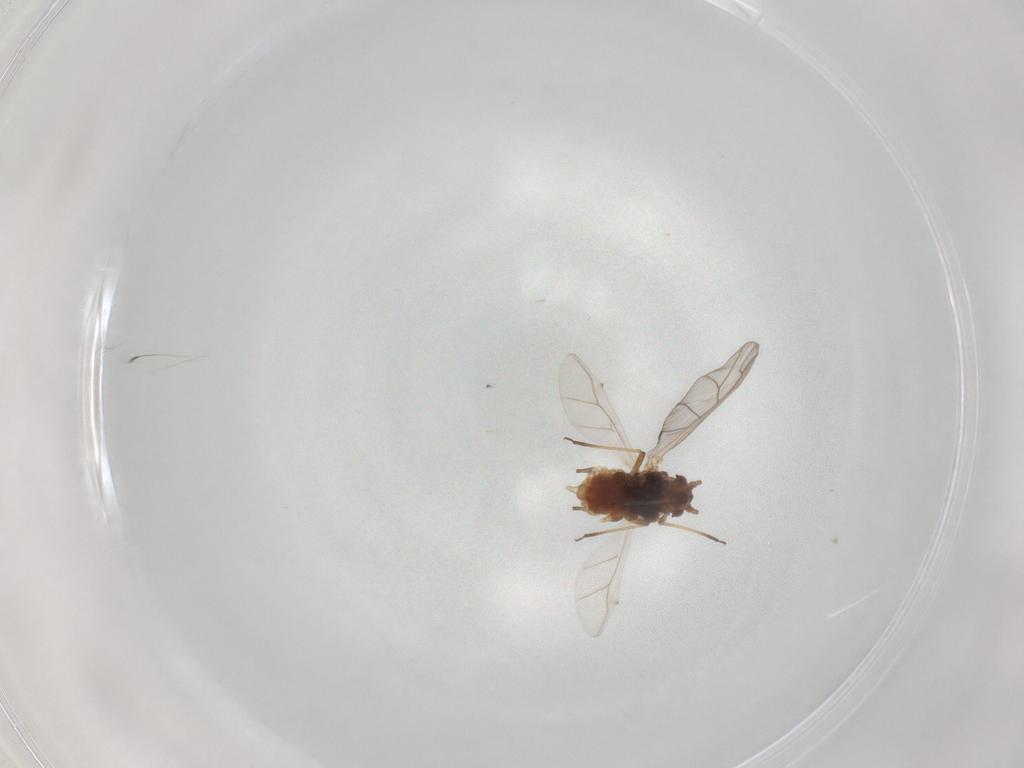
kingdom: Animalia
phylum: Arthropoda
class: Insecta
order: Hemiptera
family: Aphididae
